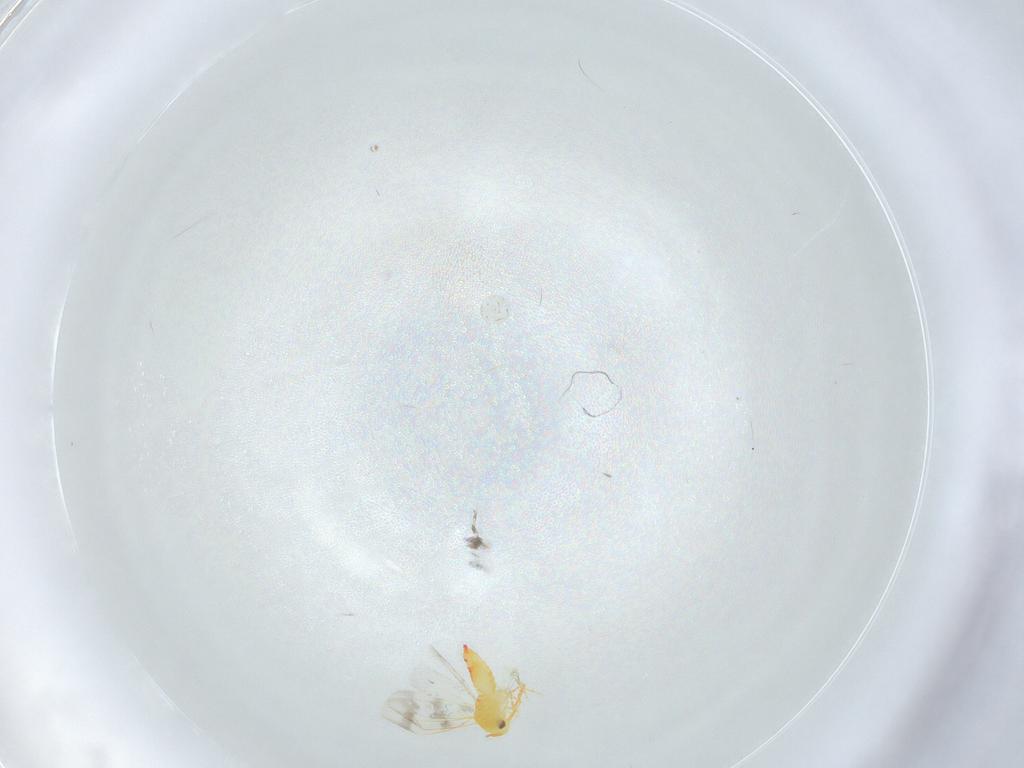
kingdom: Animalia
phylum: Arthropoda
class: Insecta
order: Hemiptera
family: Aleyrodidae
